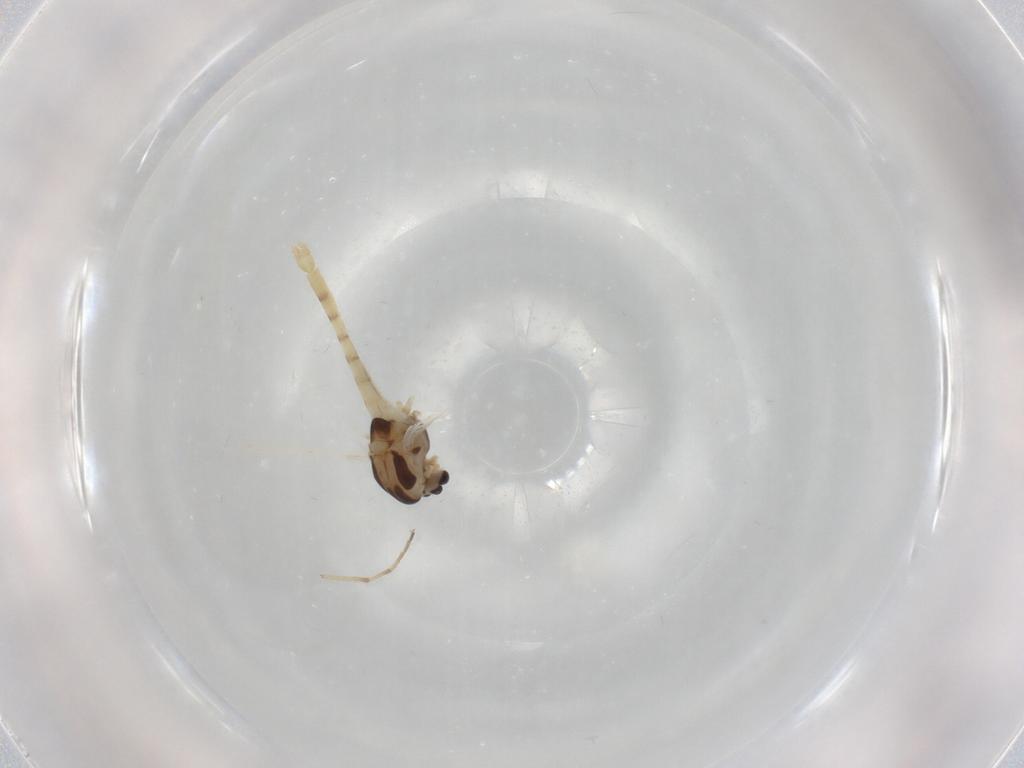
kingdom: Animalia
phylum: Arthropoda
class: Insecta
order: Diptera
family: Chironomidae
